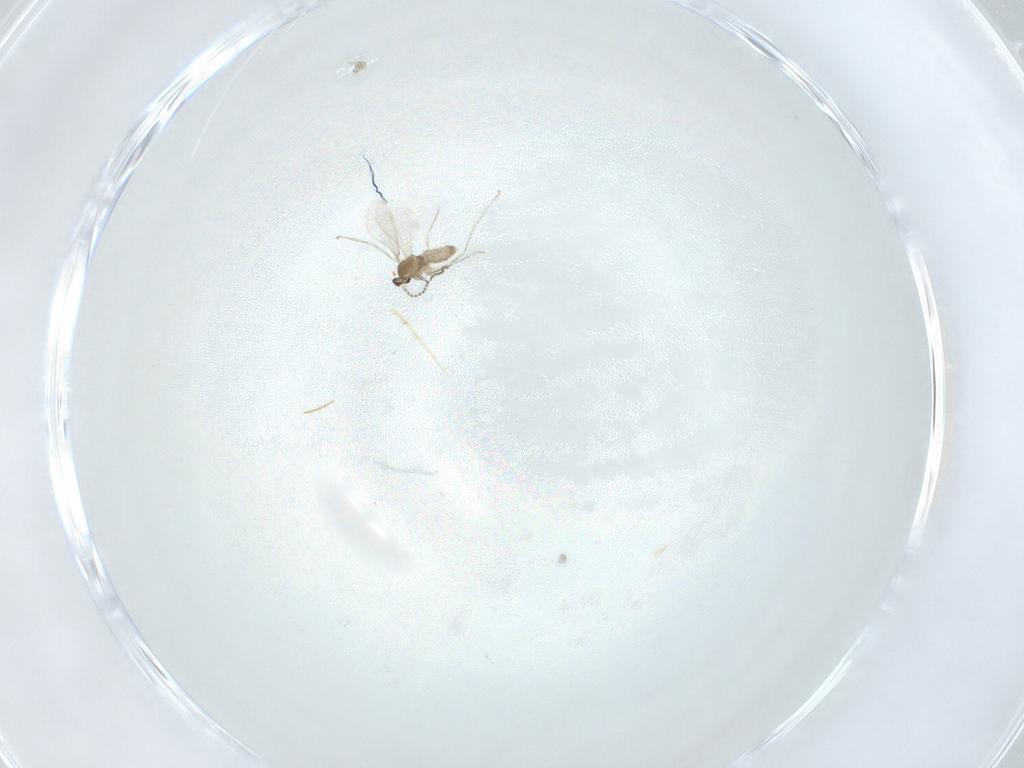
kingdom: Animalia
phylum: Arthropoda
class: Insecta
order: Diptera
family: Cecidomyiidae
